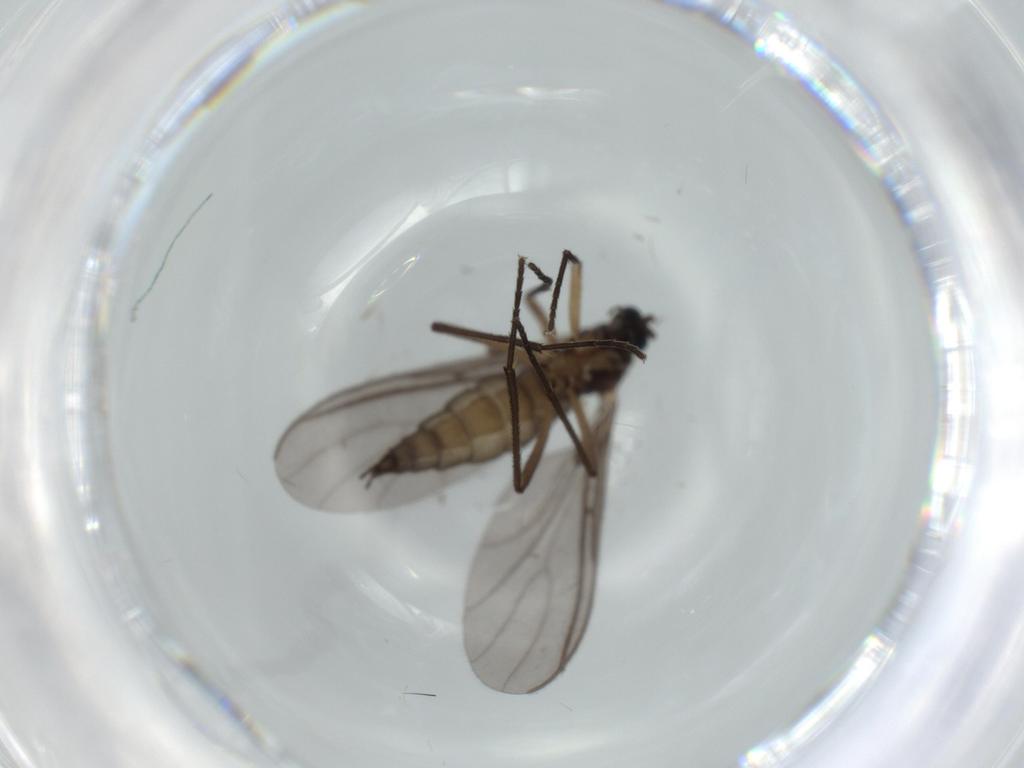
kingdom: Animalia
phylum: Arthropoda
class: Insecta
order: Diptera
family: Sciaridae
